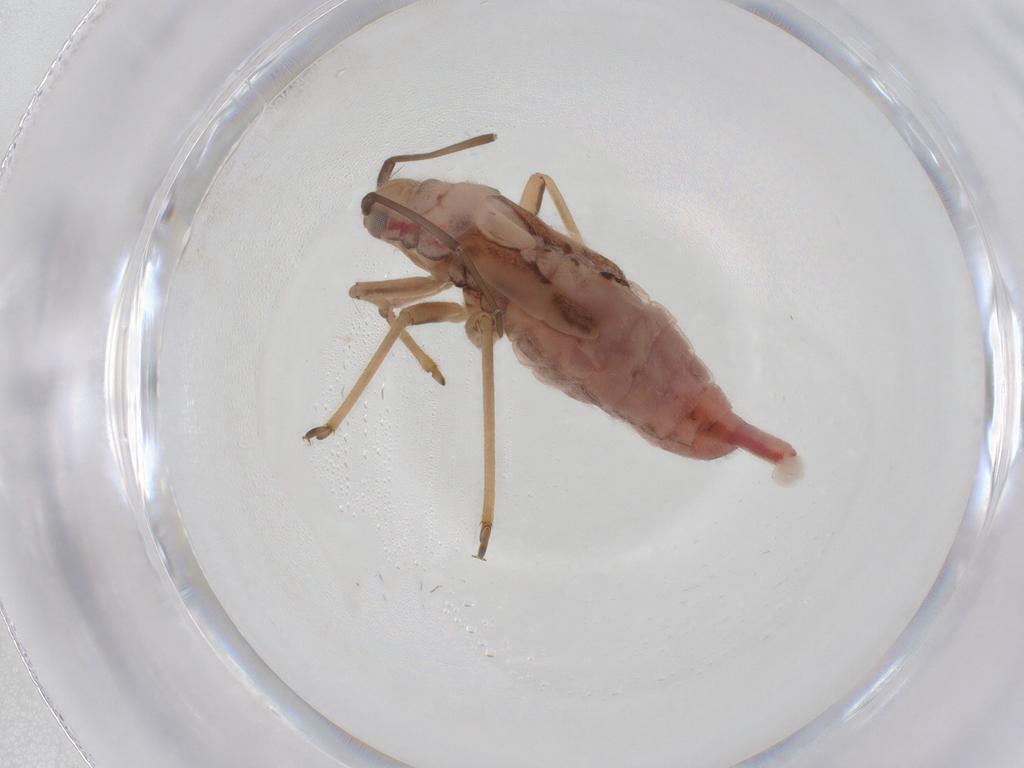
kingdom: Animalia
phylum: Arthropoda
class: Insecta
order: Hemiptera
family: Miridae
